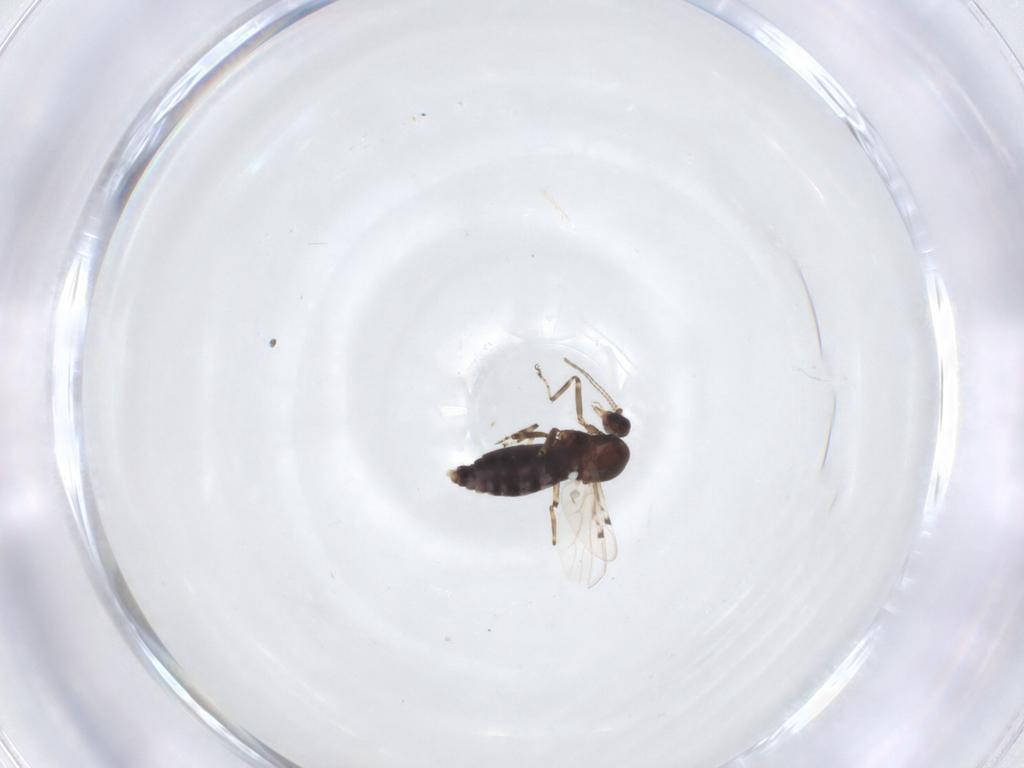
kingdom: Animalia
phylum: Arthropoda
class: Insecta
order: Diptera
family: Ceratopogonidae
